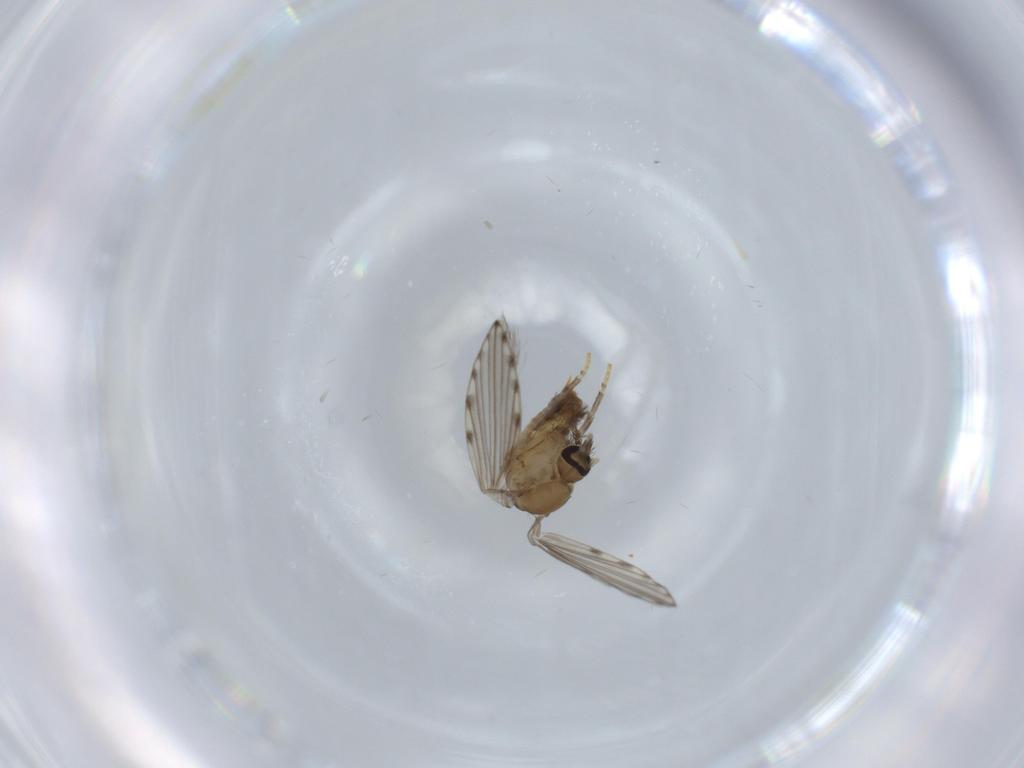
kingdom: Animalia
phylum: Arthropoda
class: Insecta
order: Diptera
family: Psychodidae
